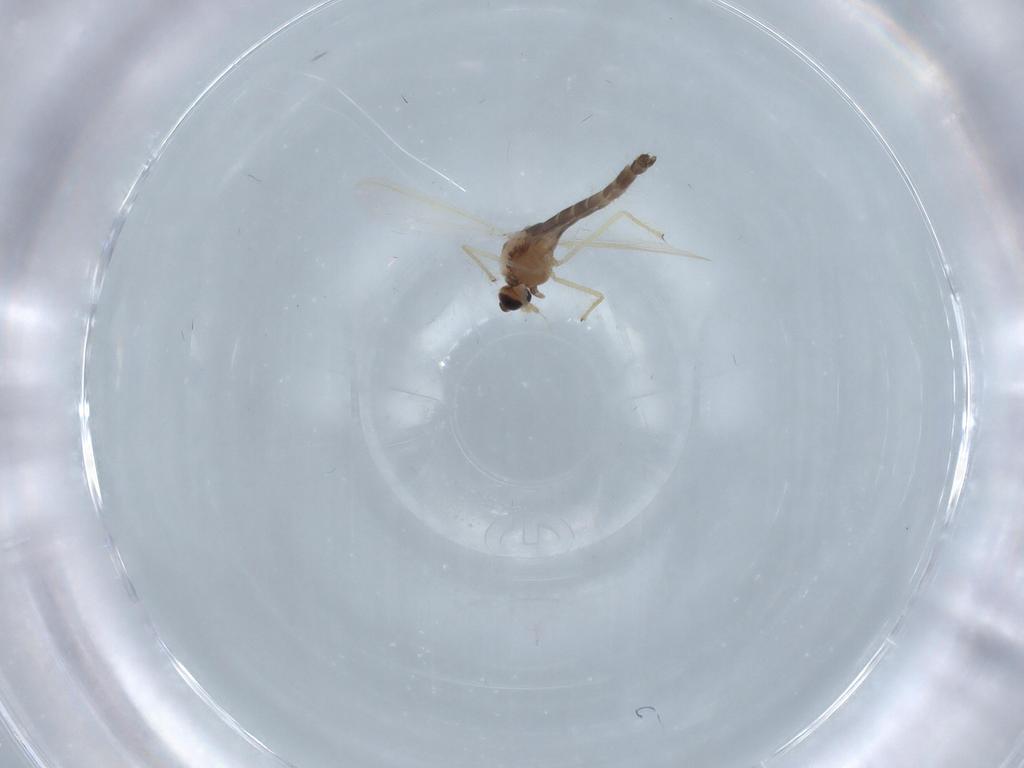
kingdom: Animalia
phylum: Arthropoda
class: Insecta
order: Diptera
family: Chironomidae
